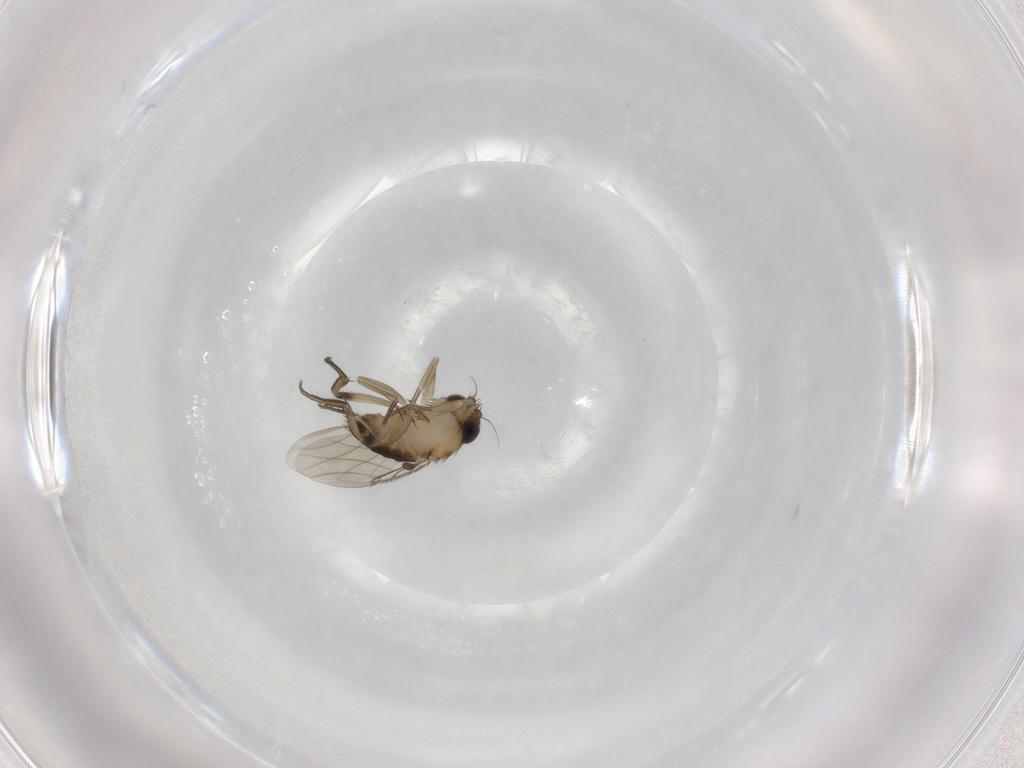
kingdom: Animalia
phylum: Arthropoda
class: Insecta
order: Diptera
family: Phoridae
